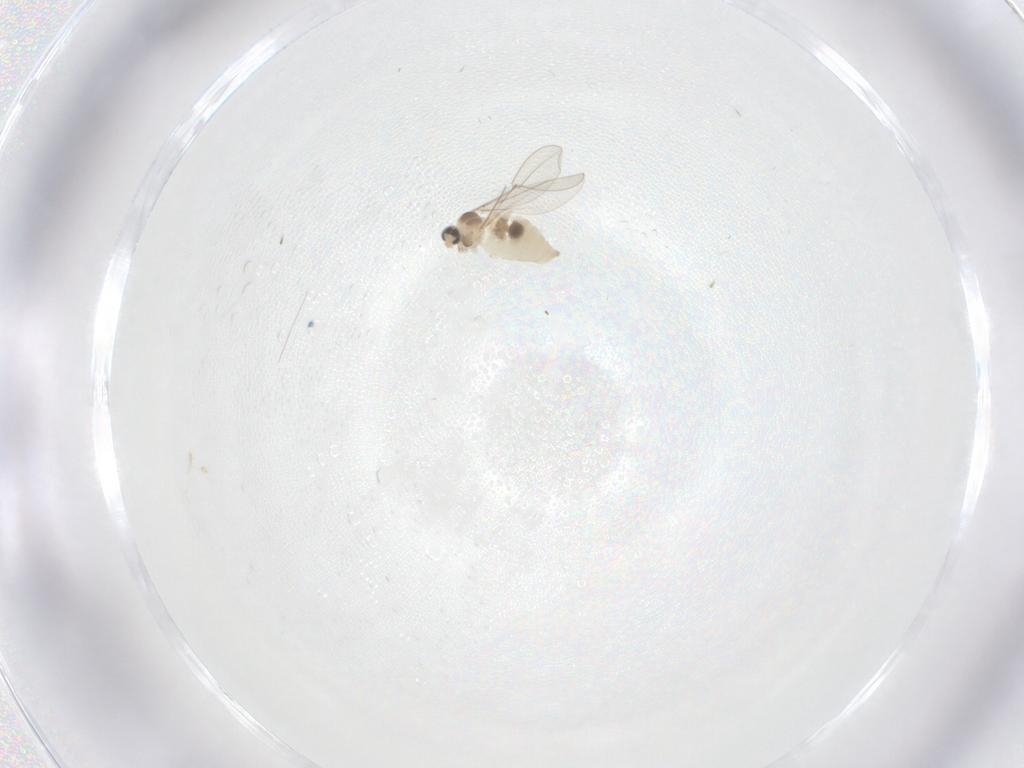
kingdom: Animalia
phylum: Arthropoda
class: Insecta
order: Diptera
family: Cecidomyiidae
